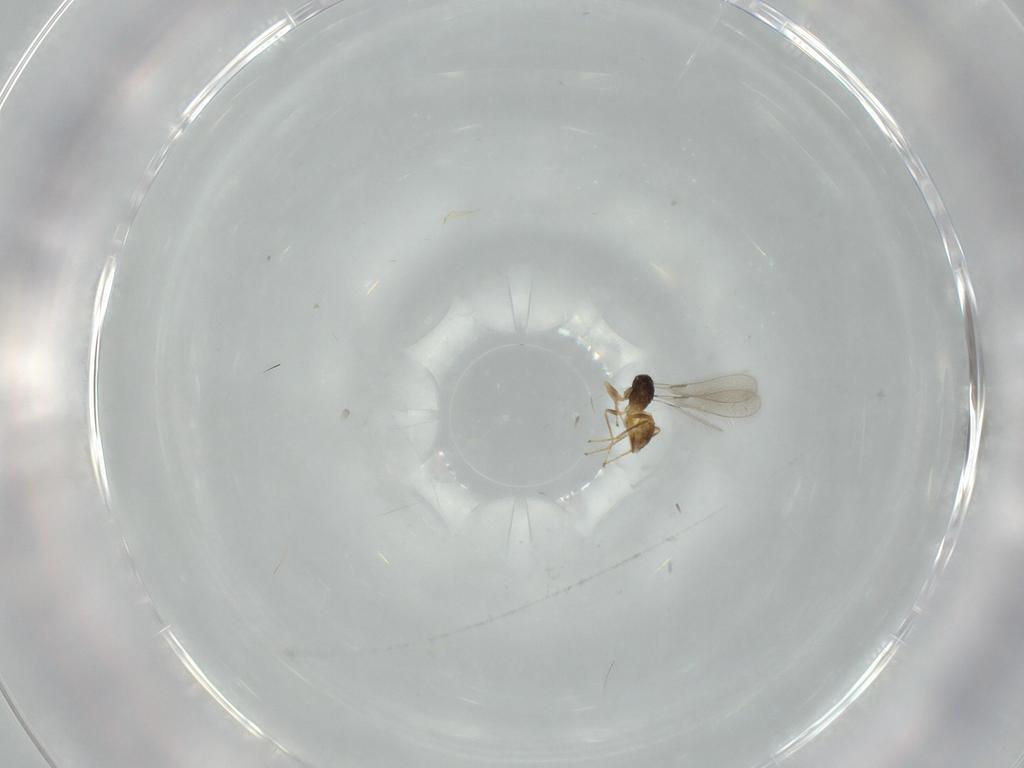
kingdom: Animalia
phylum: Arthropoda
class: Insecta
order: Hymenoptera
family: Mymaridae
